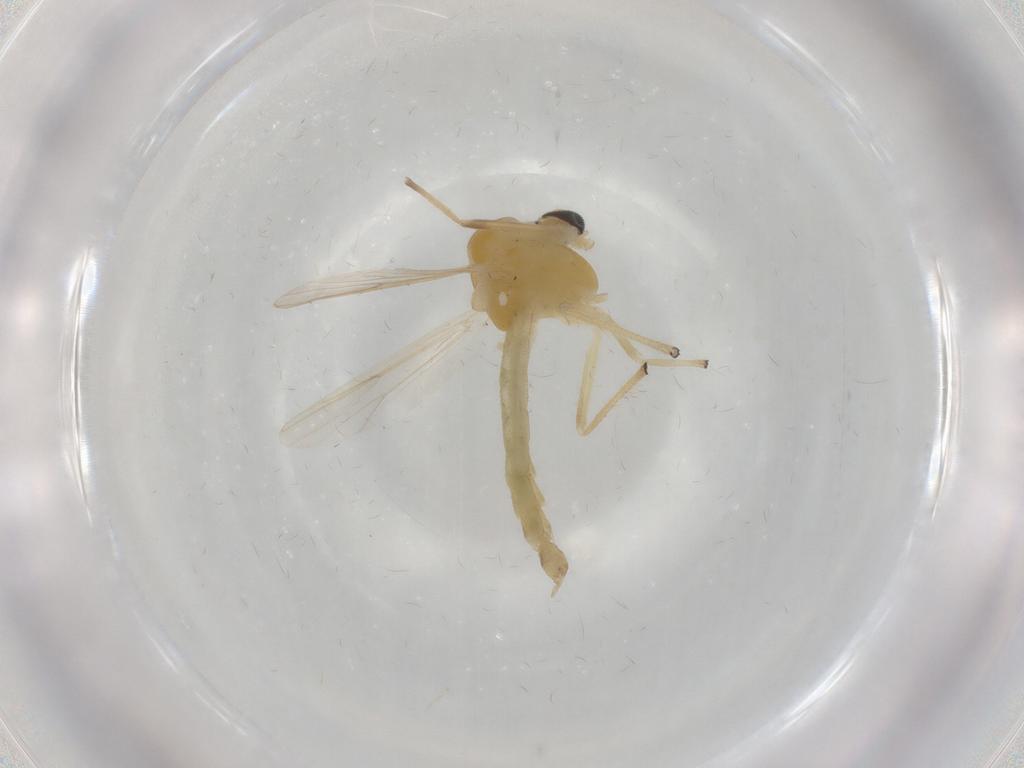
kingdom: Animalia
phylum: Arthropoda
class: Insecta
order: Diptera
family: Chironomidae
